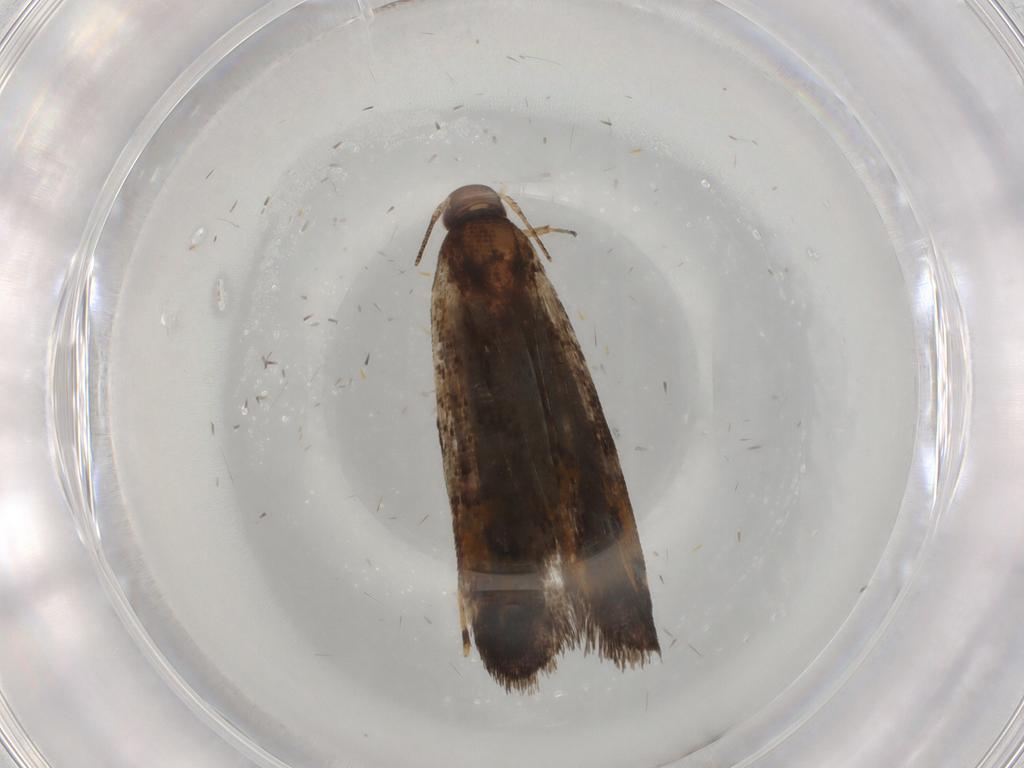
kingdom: Animalia
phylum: Arthropoda
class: Insecta
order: Lepidoptera
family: Gelechiidae
